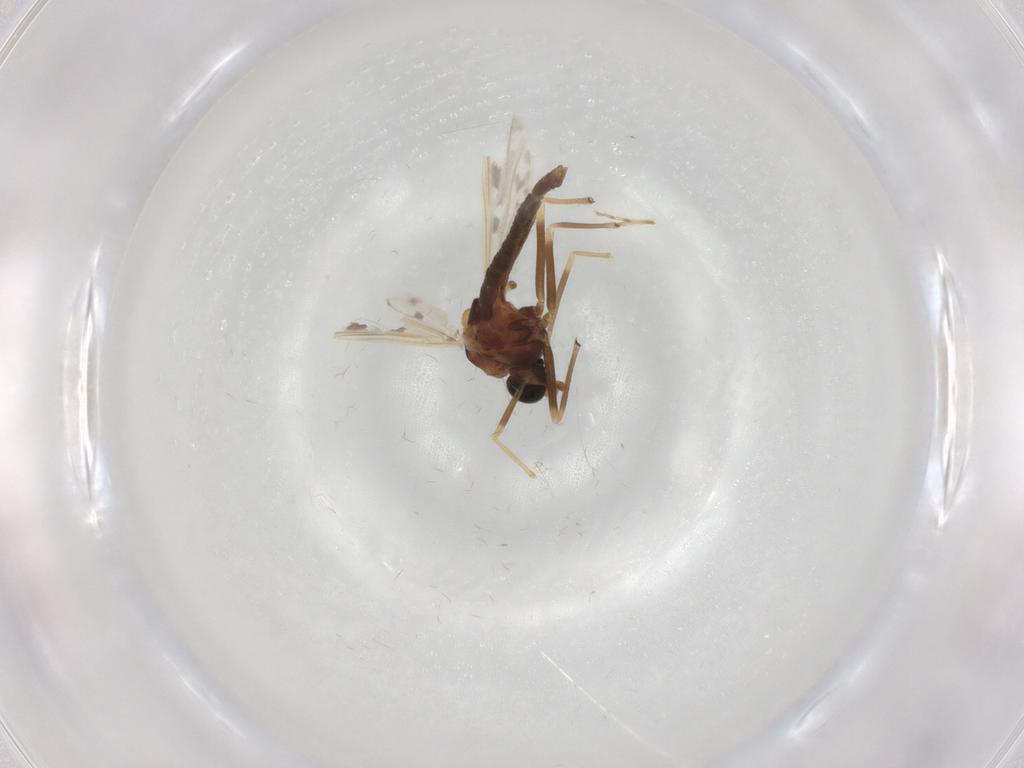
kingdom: Animalia
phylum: Arthropoda
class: Insecta
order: Diptera
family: Chironomidae
